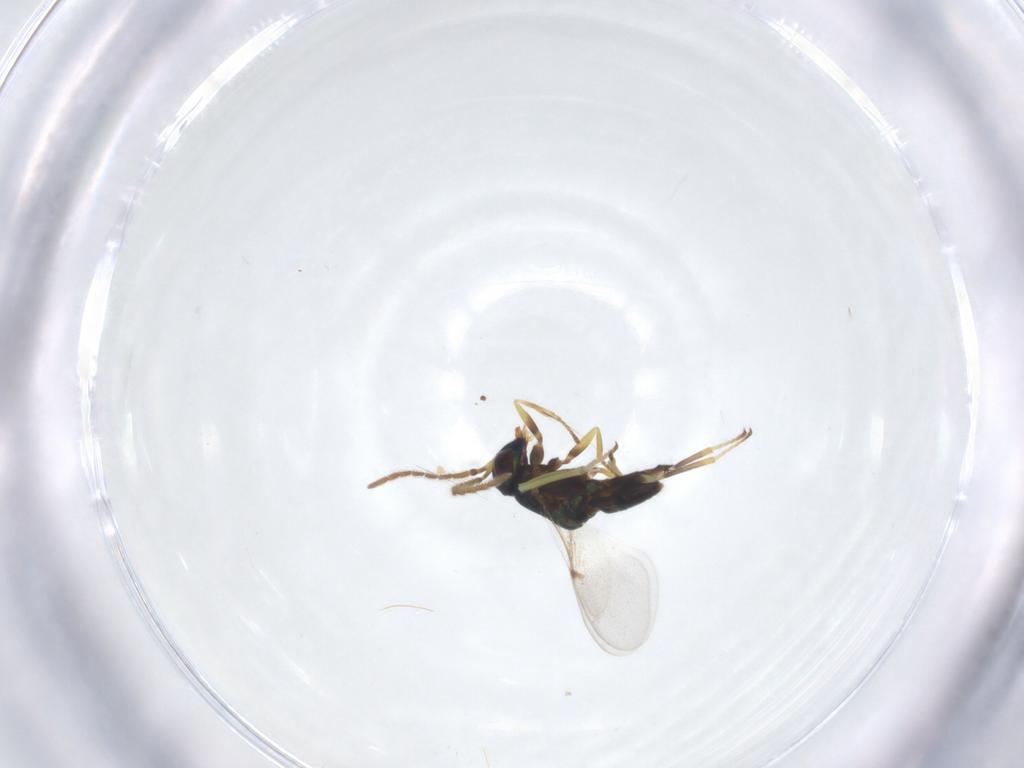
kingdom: Animalia
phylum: Arthropoda
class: Insecta
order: Hymenoptera
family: Encyrtidae
